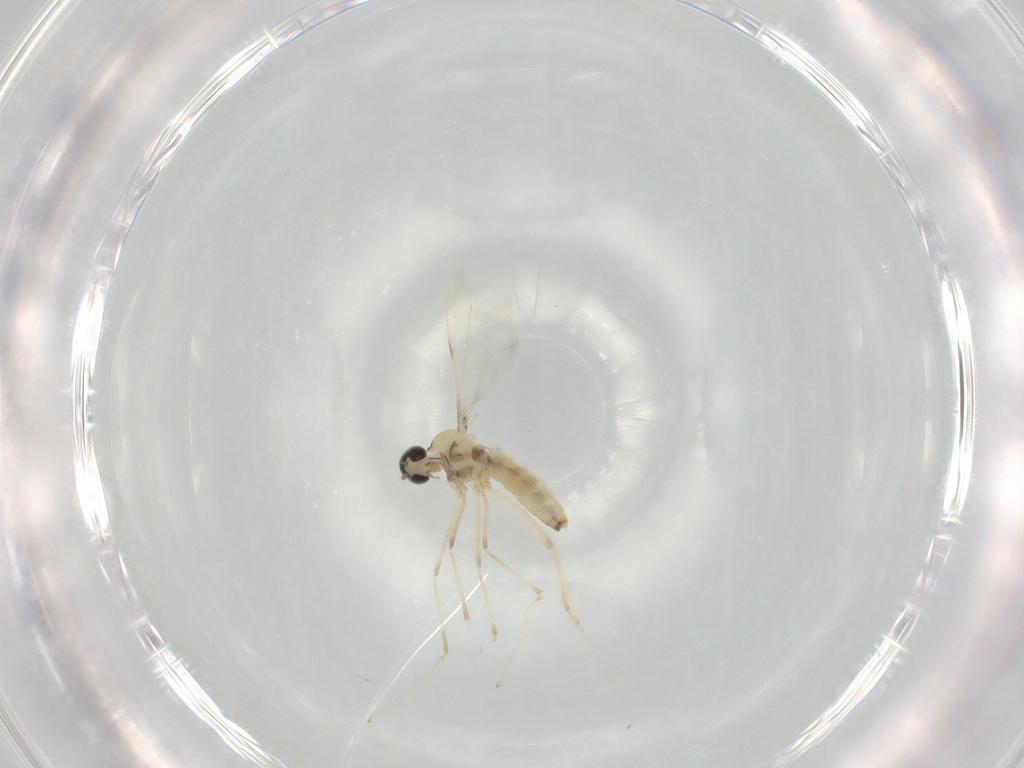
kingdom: Animalia
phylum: Arthropoda
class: Insecta
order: Diptera
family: Cecidomyiidae
